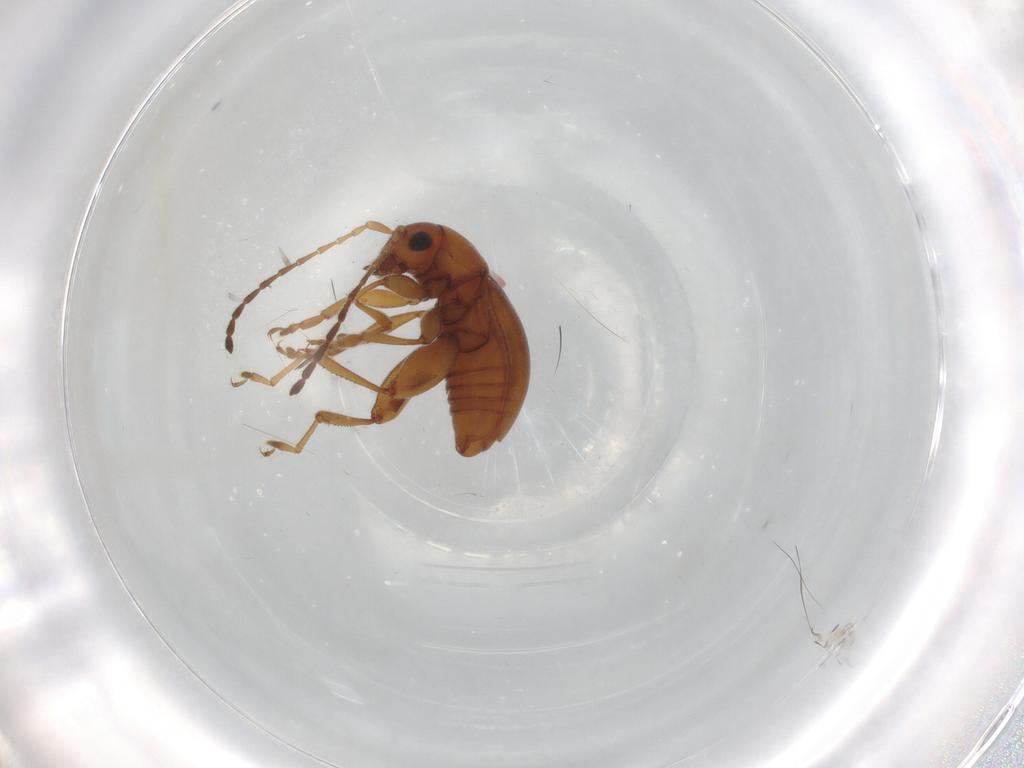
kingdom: Animalia
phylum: Arthropoda
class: Insecta
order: Coleoptera
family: Chrysomelidae
